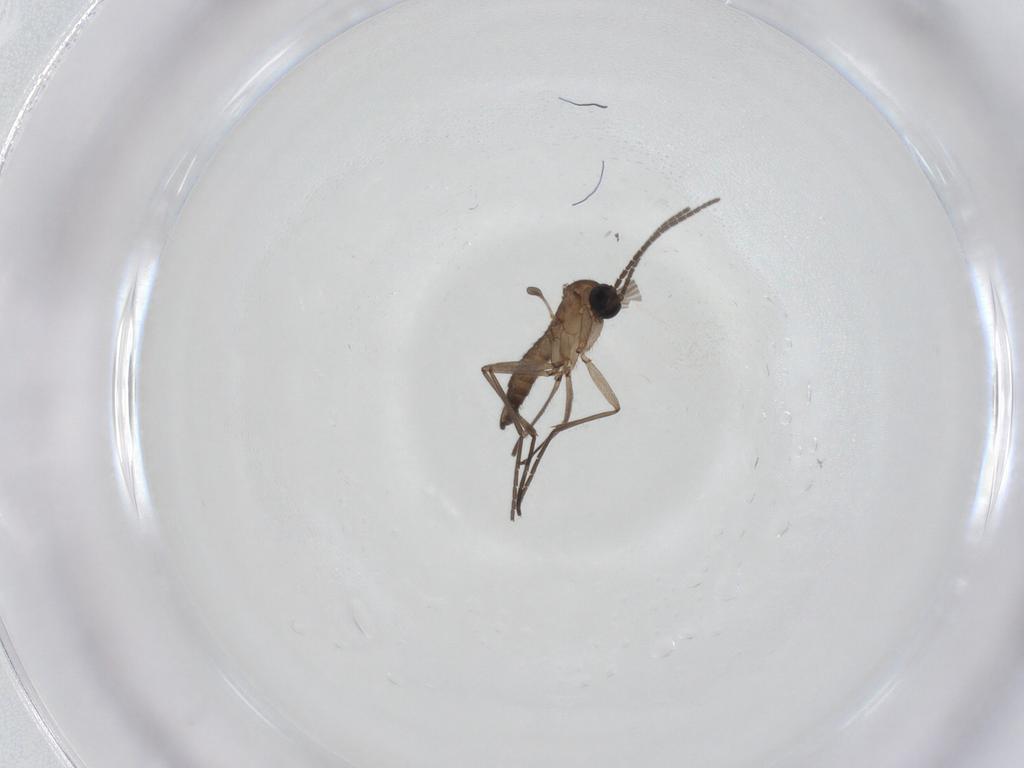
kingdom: Animalia
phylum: Arthropoda
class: Insecta
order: Diptera
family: Sciaridae
